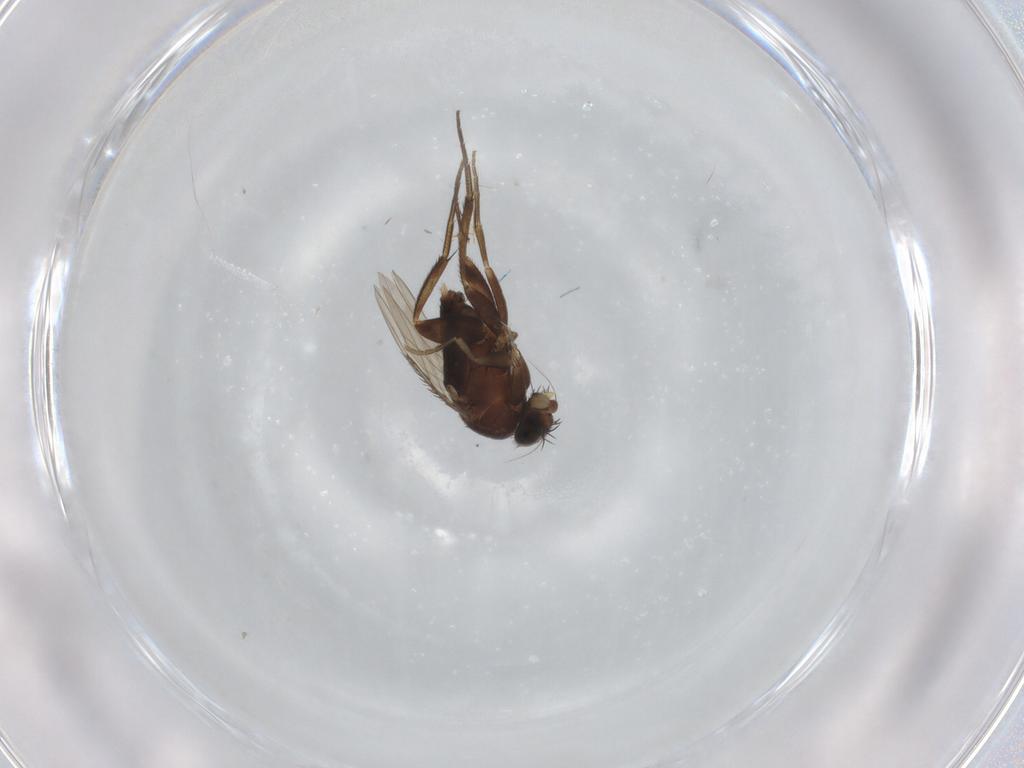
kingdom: Animalia
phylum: Arthropoda
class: Insecta
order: Diptera
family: Phoridae
